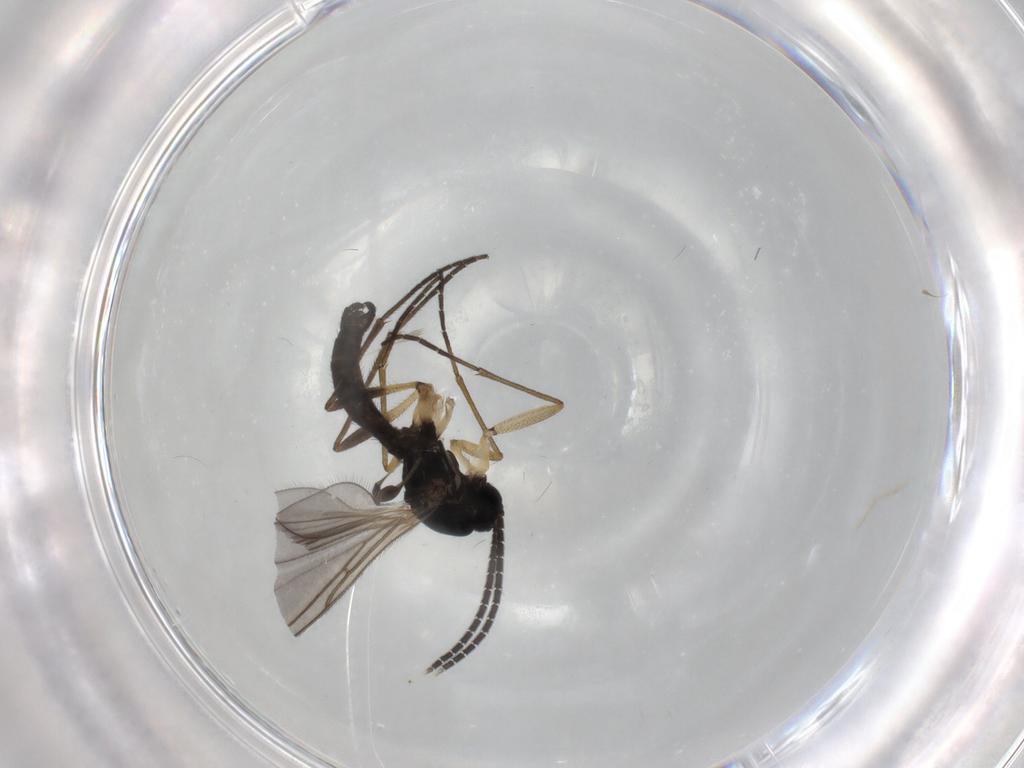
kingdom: Animalia
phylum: Arthropoda
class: Insecta
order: Diptera
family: Sciaridae
